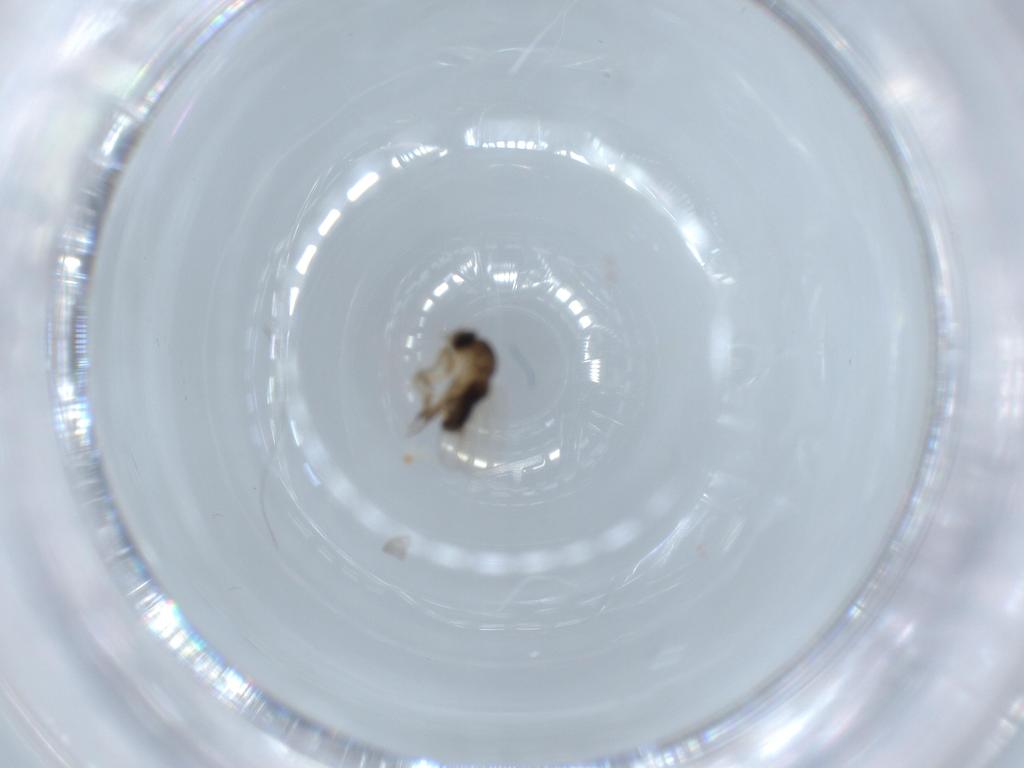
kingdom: Animalia
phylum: Arthropoda
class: Insecta
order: Diptera
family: Phoridae
